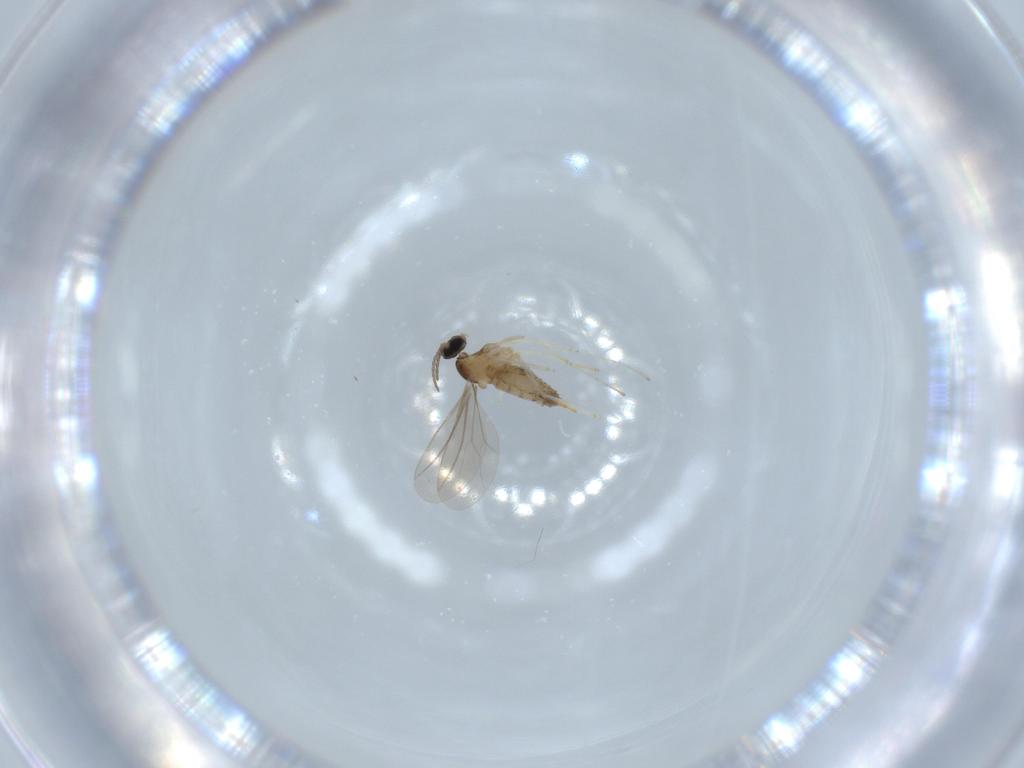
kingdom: Animalia
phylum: Arthropoda
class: Insecta
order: Diptera
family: Cecidomyiidae
